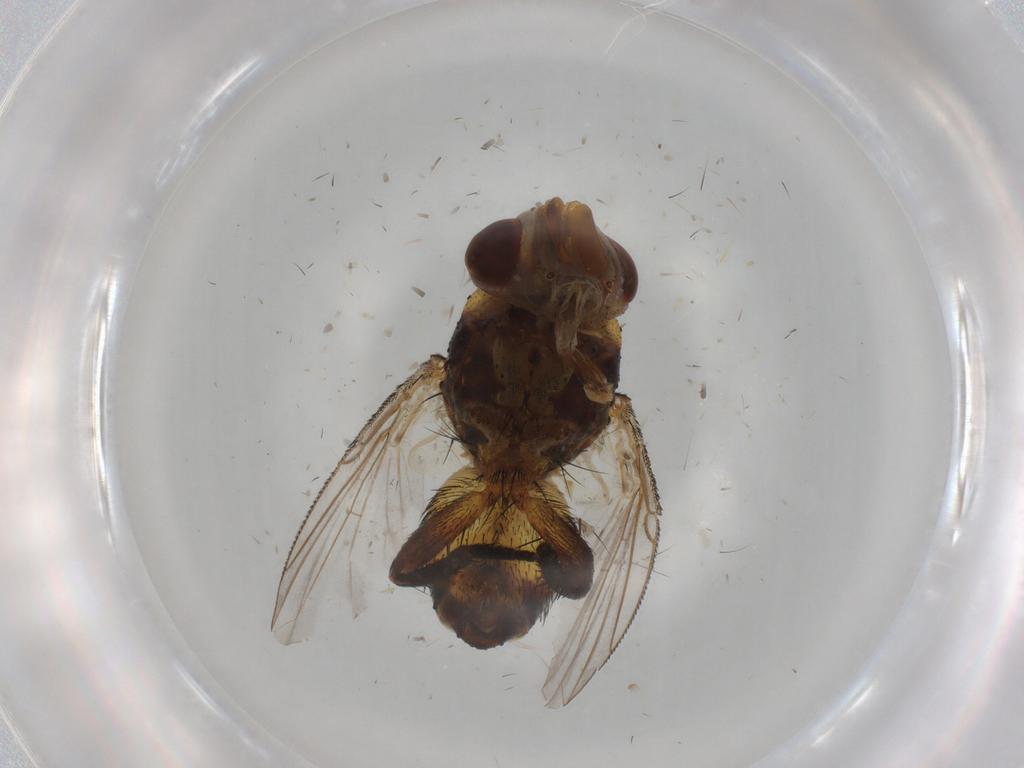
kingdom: Animalia
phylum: Arthropoda
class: Insecta
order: Diptera
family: Glossinidae
